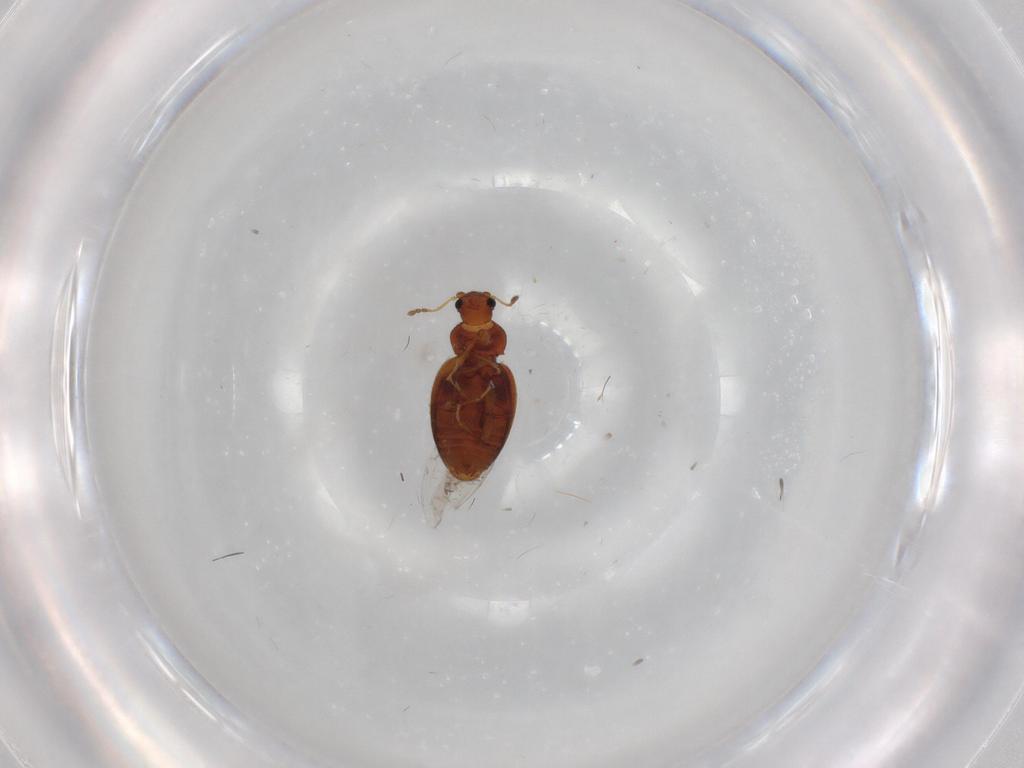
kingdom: Animalia
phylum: Arthropoda
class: Insecta
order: Coleoptera
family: Latridiidae
